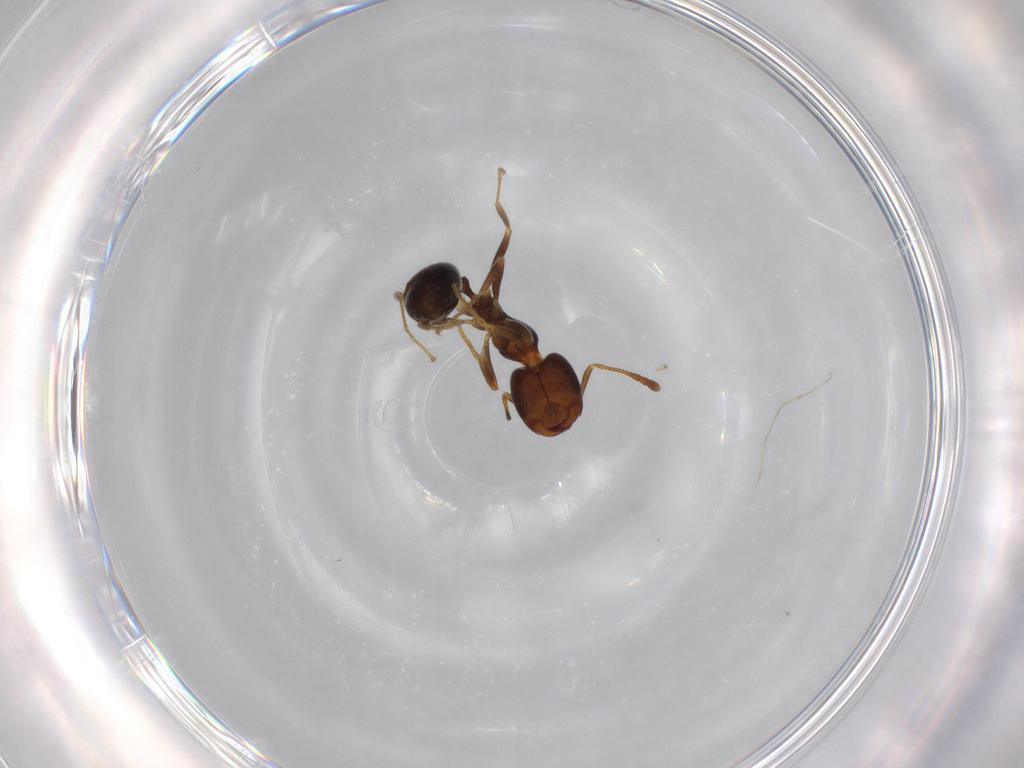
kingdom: Animalia
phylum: Arthropoda
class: Insecta
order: Hymenoptera
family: Formicidae
